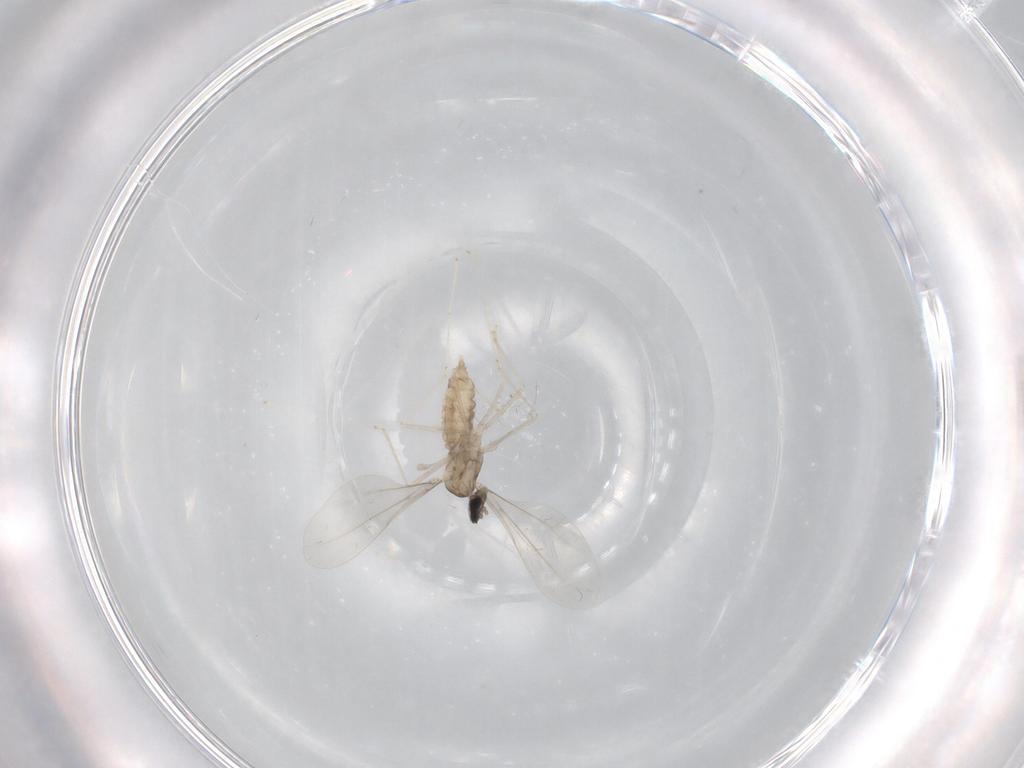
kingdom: Animalia
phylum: Arthropoda
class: Insecta
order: Diptera
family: Cecidomyiidae
